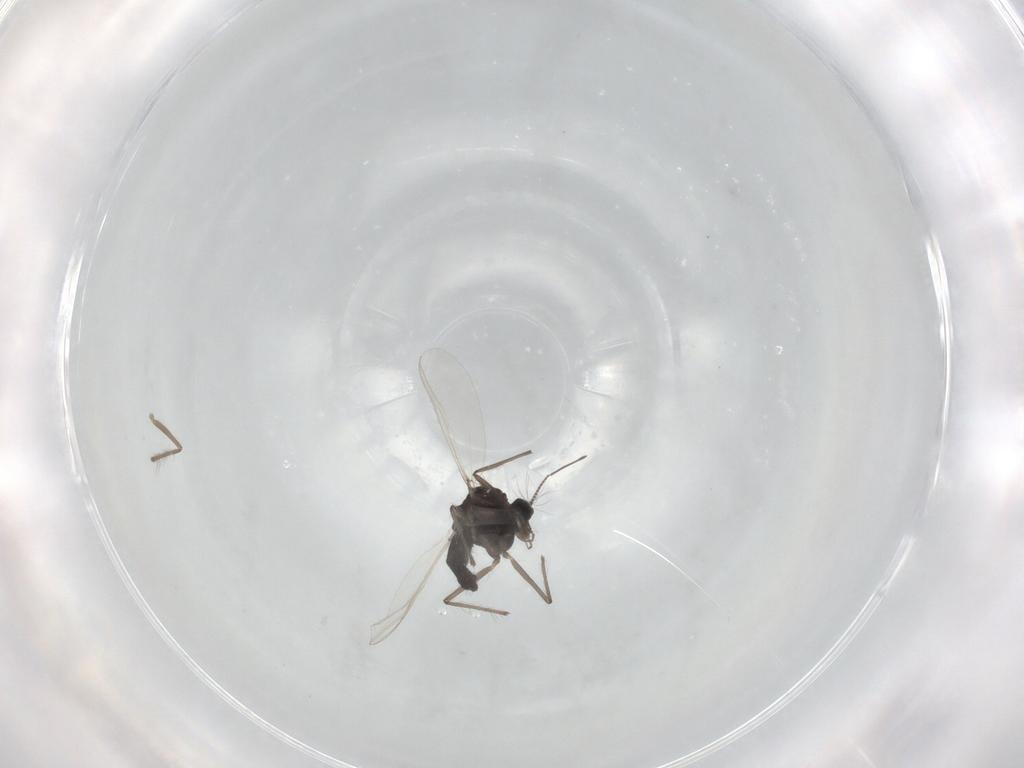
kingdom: Animalia
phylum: Arthropoda
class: Insecta
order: Diptera
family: Chironomidae
